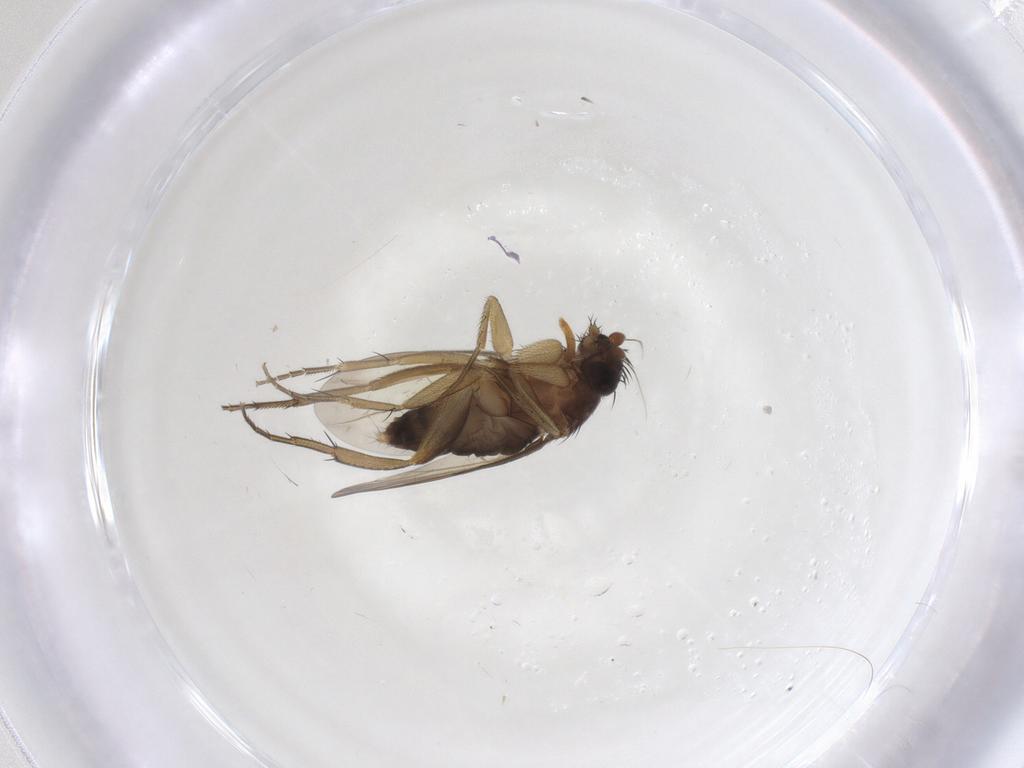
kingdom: Animalia
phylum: Arthropoda
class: Insecta
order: Diptera
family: Phoridae
